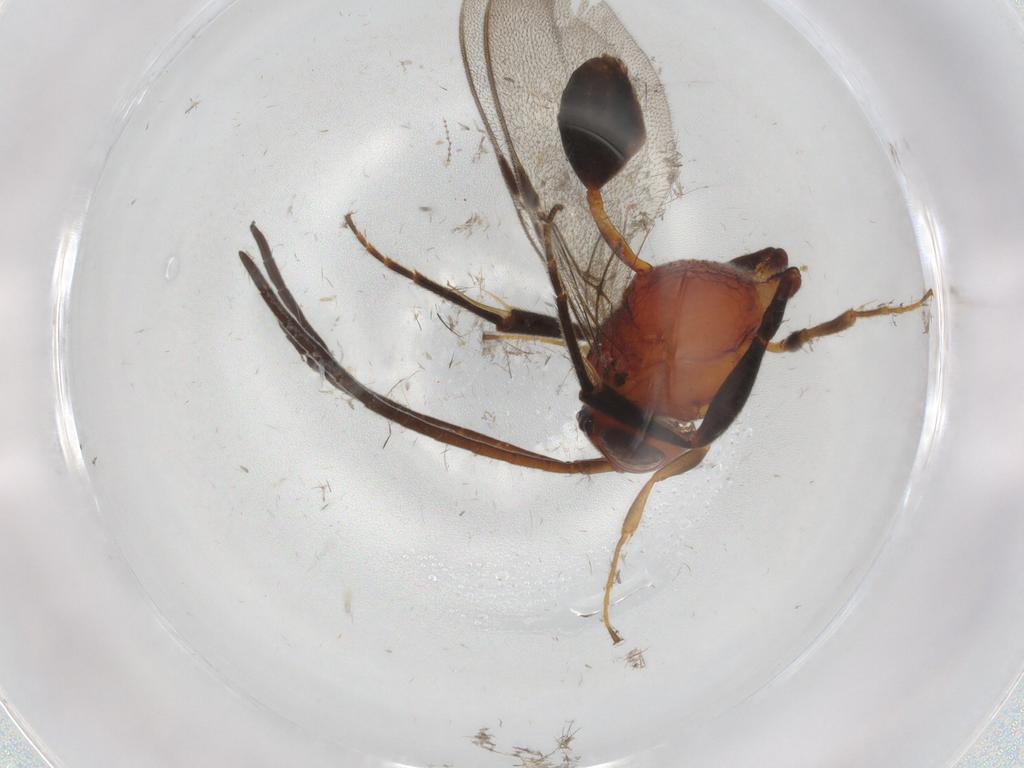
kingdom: Animalia
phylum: Arthropoda
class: Insecta
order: Hymenoptera
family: Evaniidae
